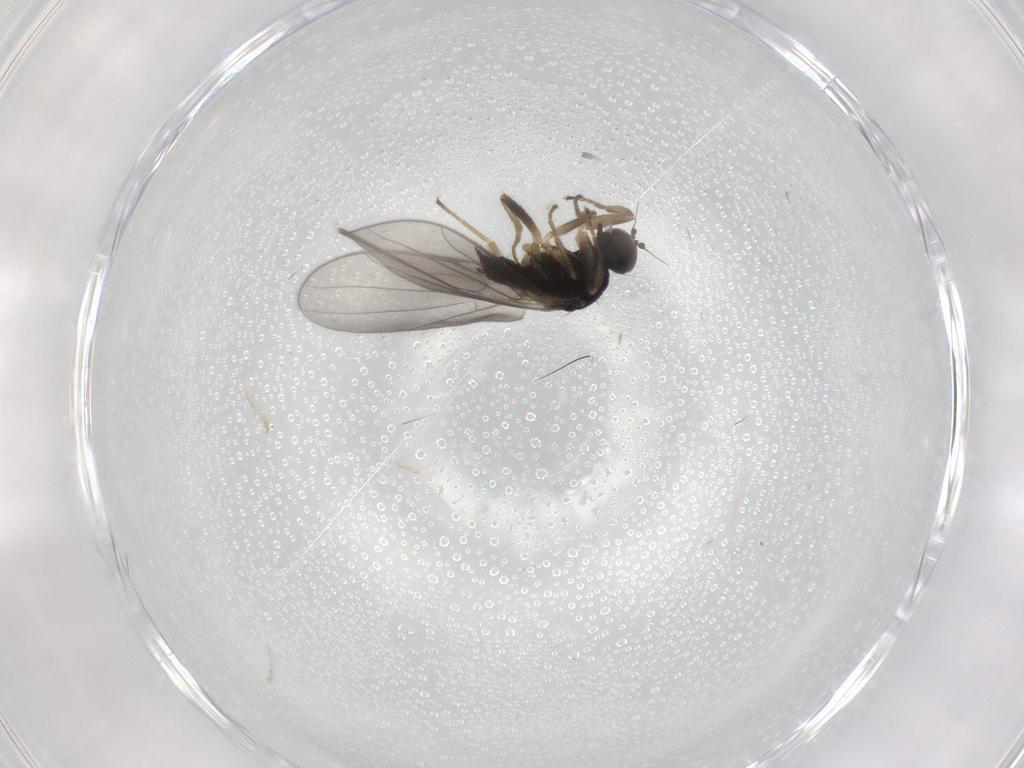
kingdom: Animalia
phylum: Arthropoda
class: Insecta
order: Diptera
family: Hybotidae
